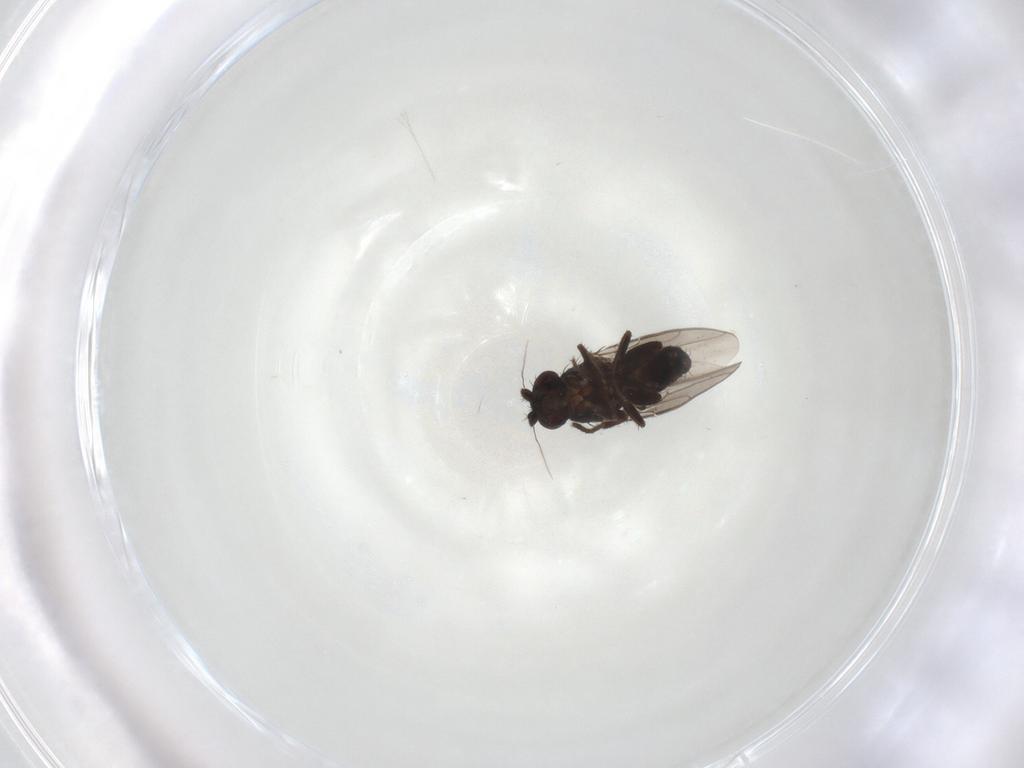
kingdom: Animalia
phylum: Arthropoda
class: Insecta
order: Diptera
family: Sphaeroceridae
